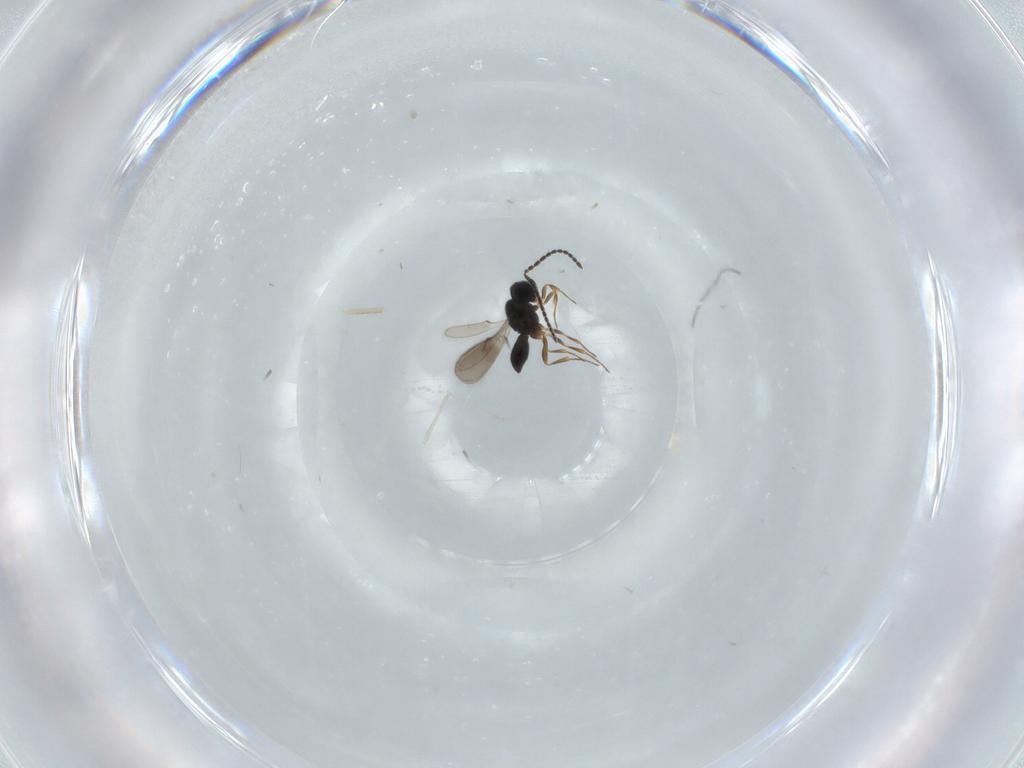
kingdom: Animalia
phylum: Arthropoda
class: Insecta
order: Hymenoptera
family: Scelionidae
